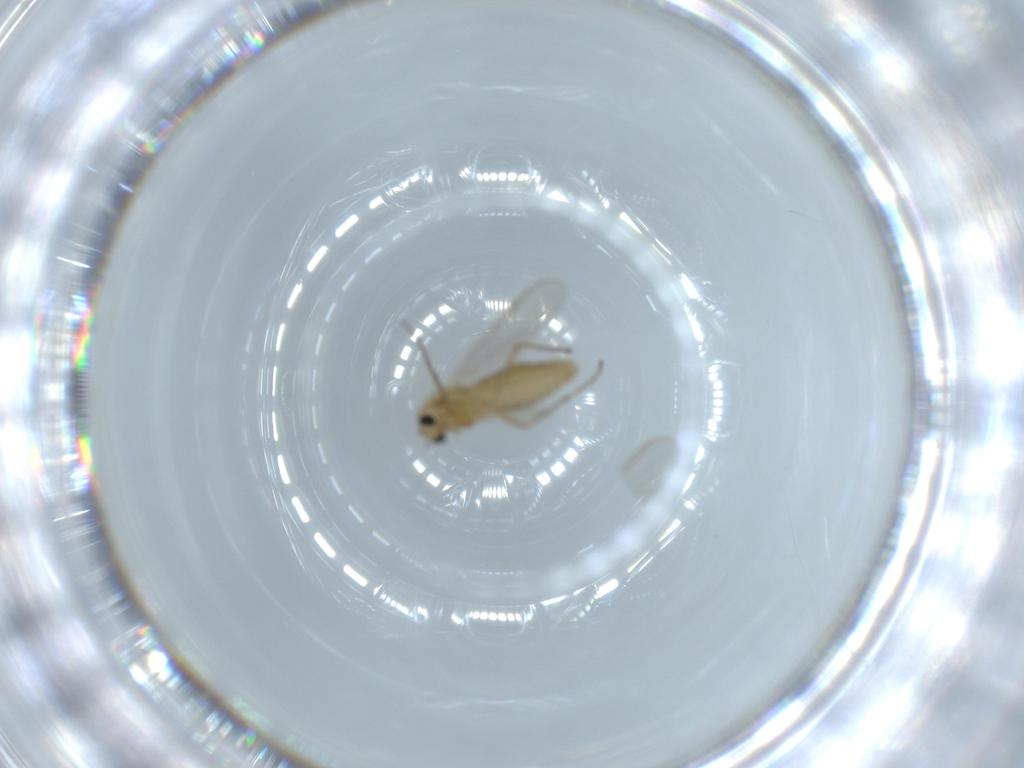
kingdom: Animalia
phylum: Arthropoda
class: Insecta
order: Diptera
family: Chironomidae
